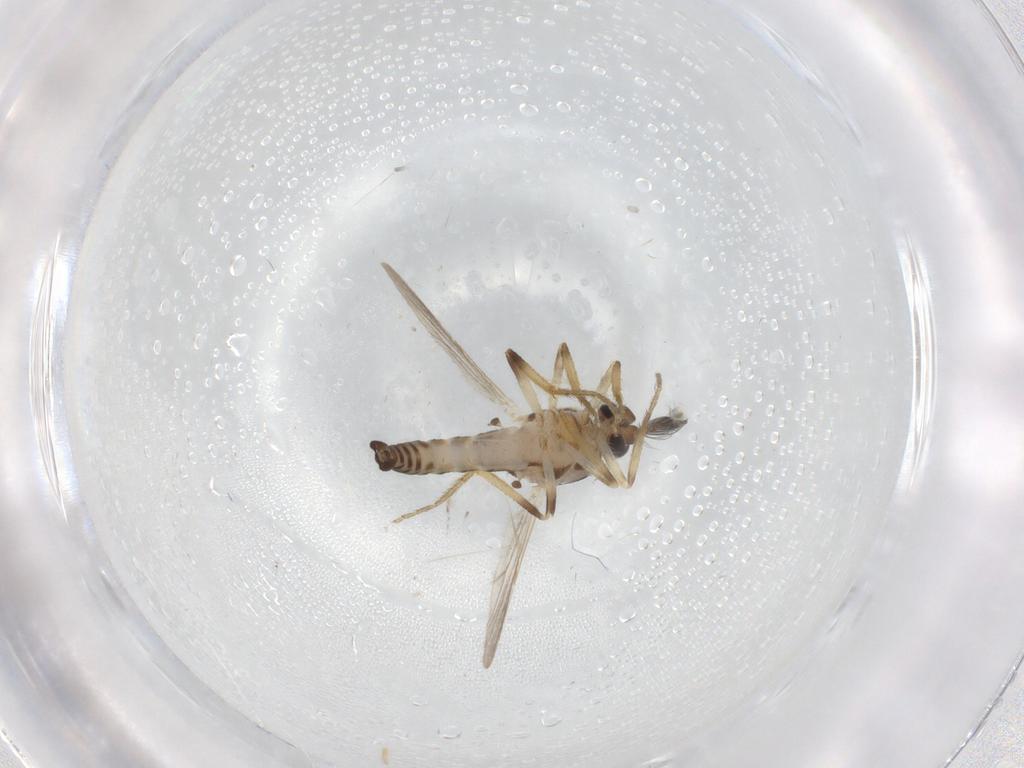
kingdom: Animalia
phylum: Arthropoda
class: Insecta
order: Diptera
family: Ceratopogonidae
